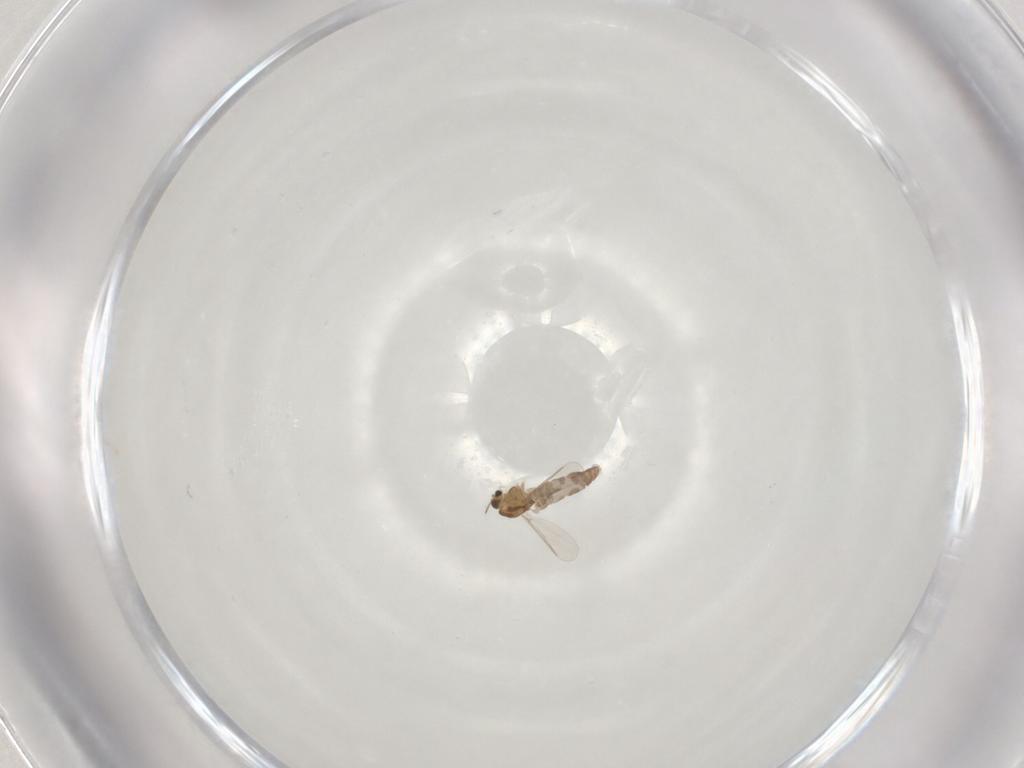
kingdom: Animalia
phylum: Arthropoda
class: Insecta
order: Diptera
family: Chironomidae
